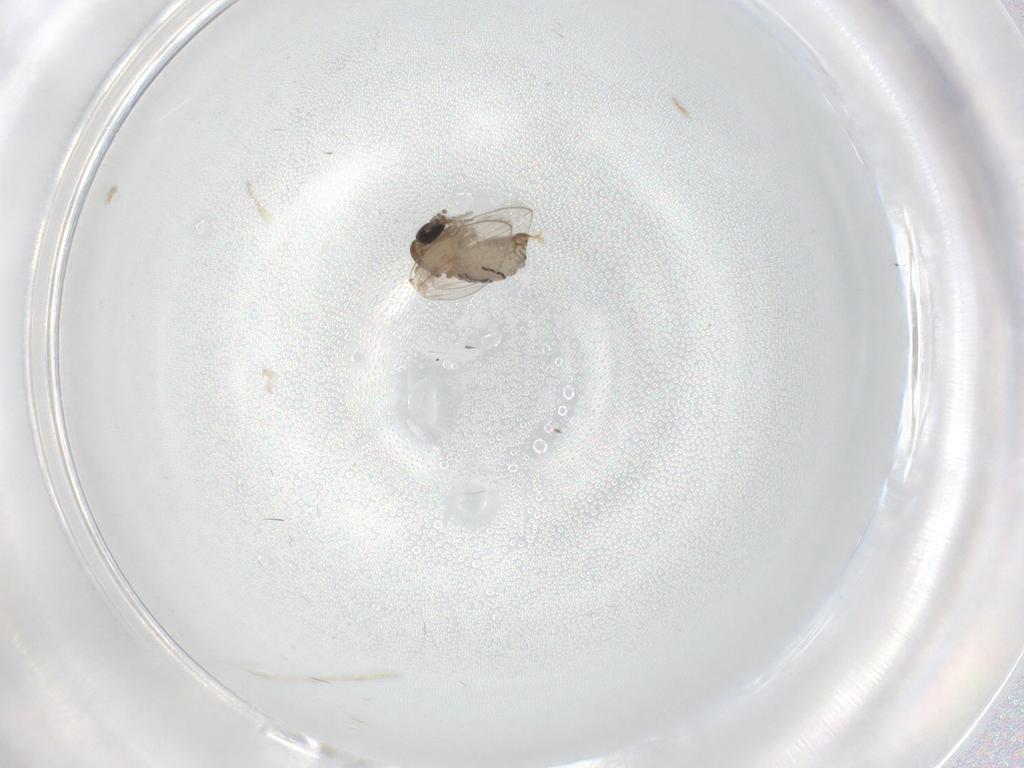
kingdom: Animalia
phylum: Arthropoda
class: Insecta
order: Diptera
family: Psychodidae
